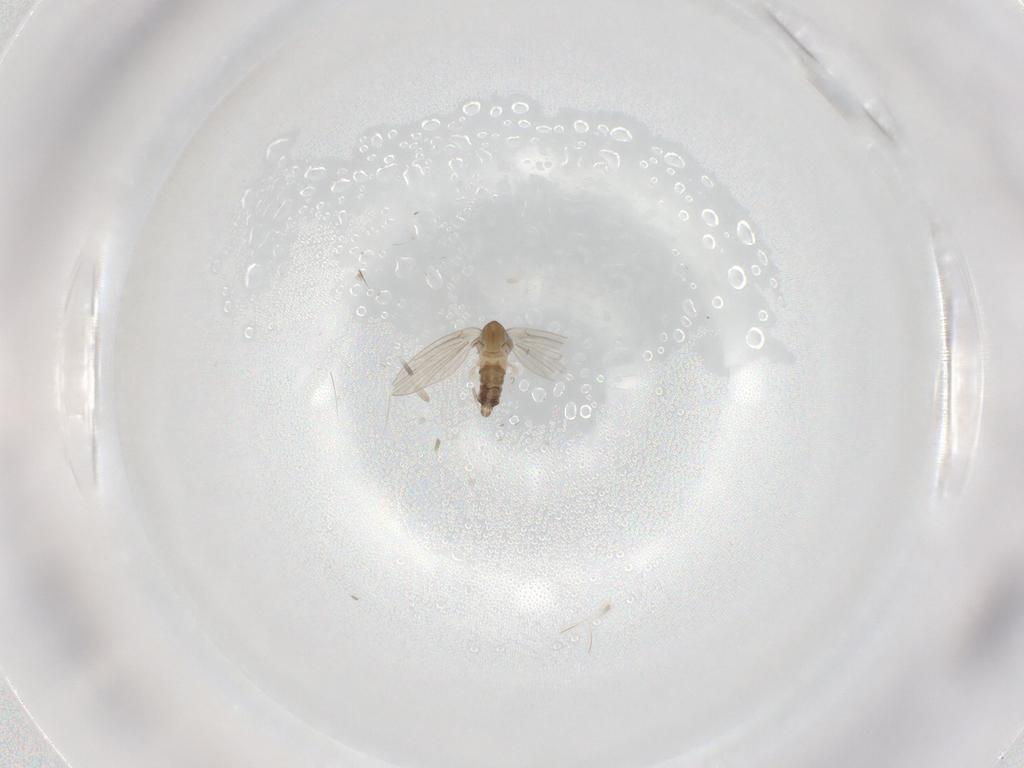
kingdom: Animalia
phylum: Arthropoda
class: Insecta
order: Diptera
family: Psychodidae
